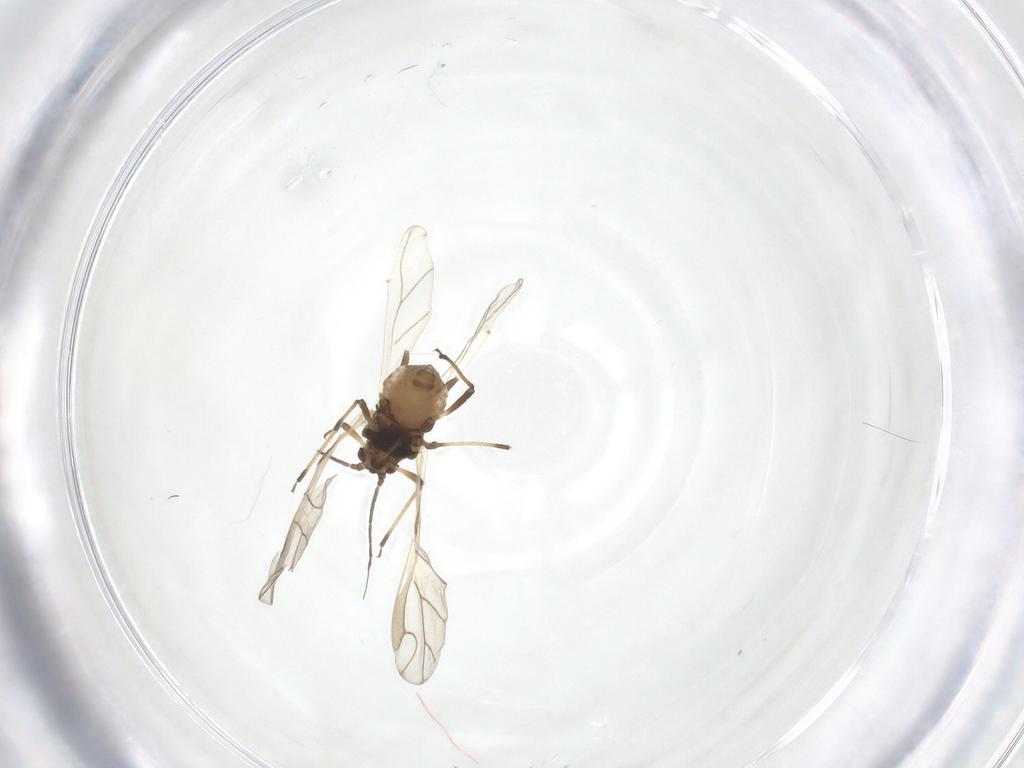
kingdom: Animalia
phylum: Arthropoda
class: Insecta
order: Hemiptera
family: Aphididae
